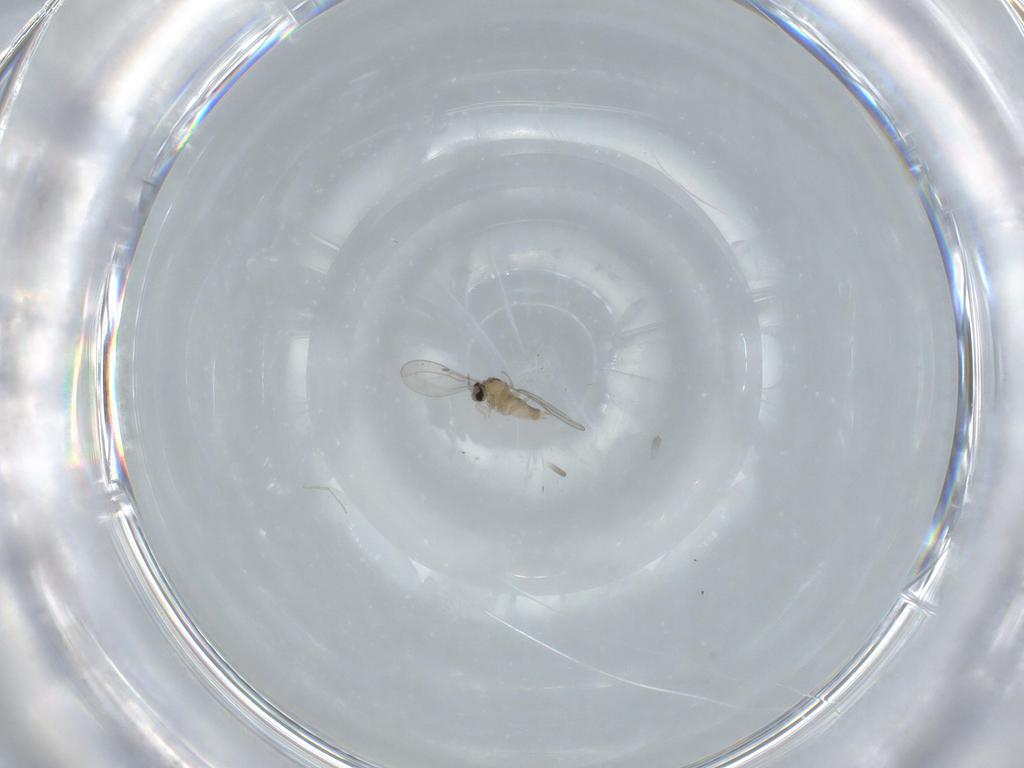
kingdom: Animalia
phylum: Arthropoda
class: Insecta
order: Diptera
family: Cecidomyiidae
